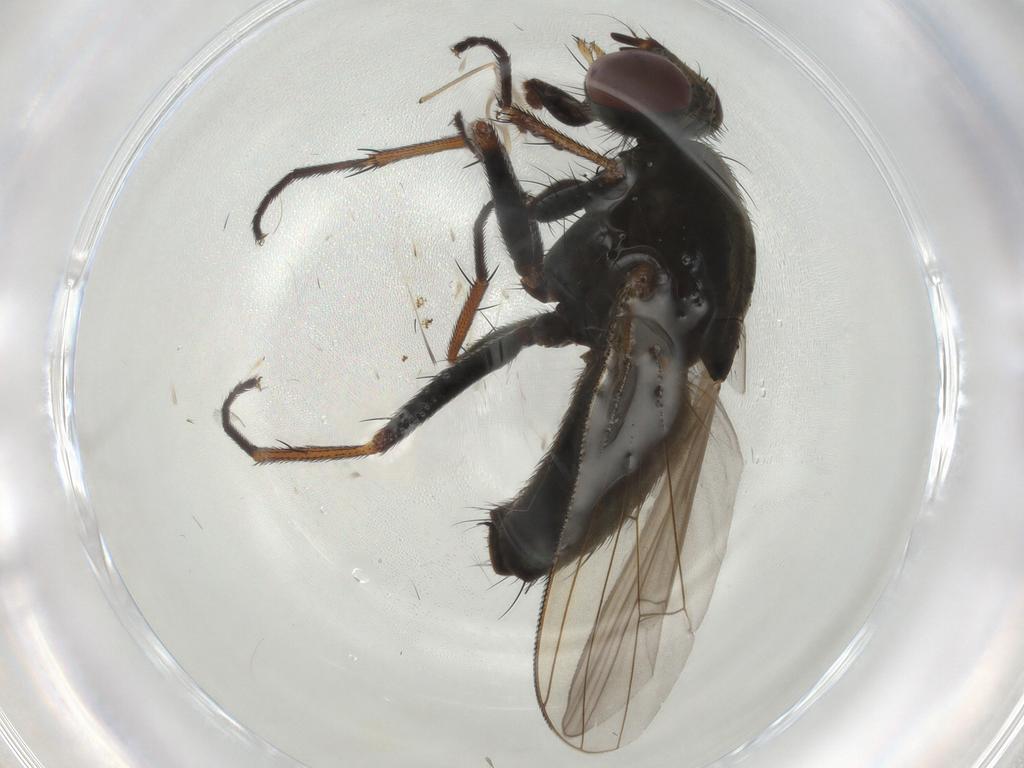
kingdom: Animalia
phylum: Arthropoda
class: Insecta
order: Diptera
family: Muscidae
